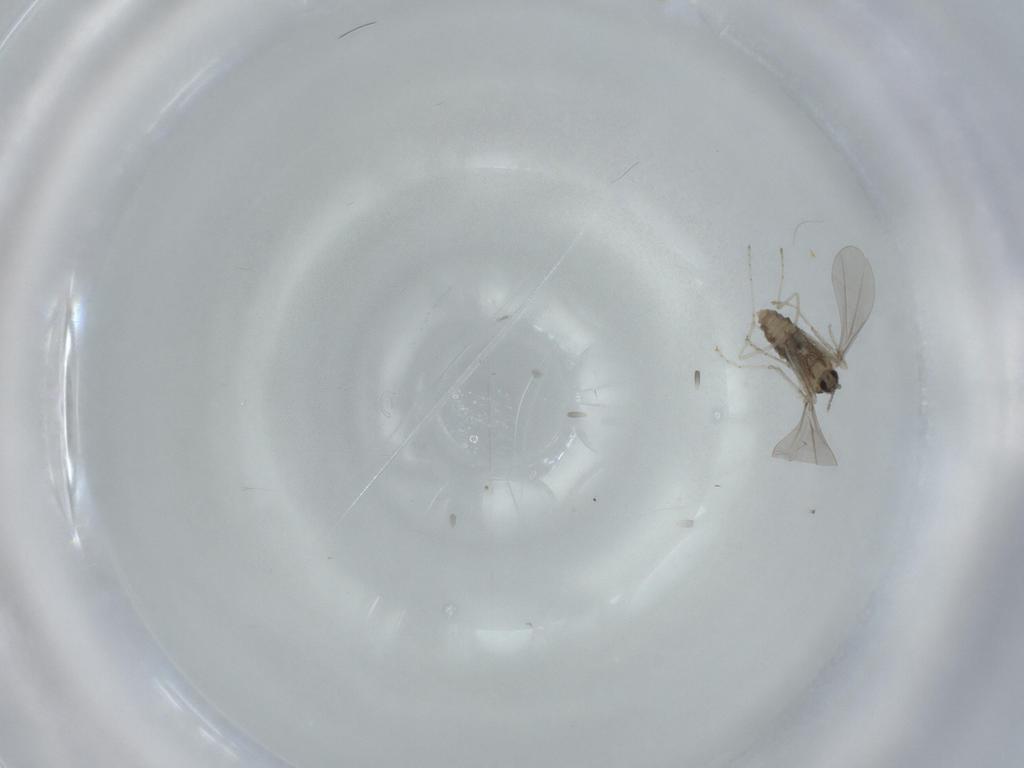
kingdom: Animalia
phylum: Arthropoda
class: Insecta
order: Diptera
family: Cecidomyiidae
